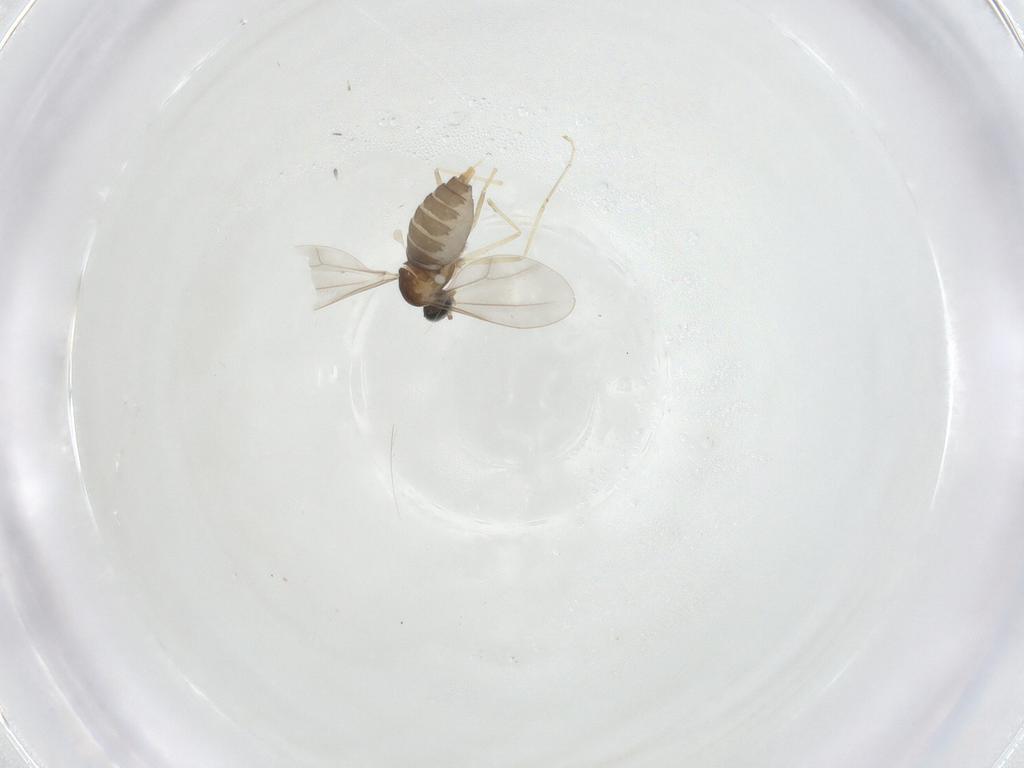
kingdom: Animalia
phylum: Arthropoda
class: Insecta
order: Diptera
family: Cecidomyiidae
